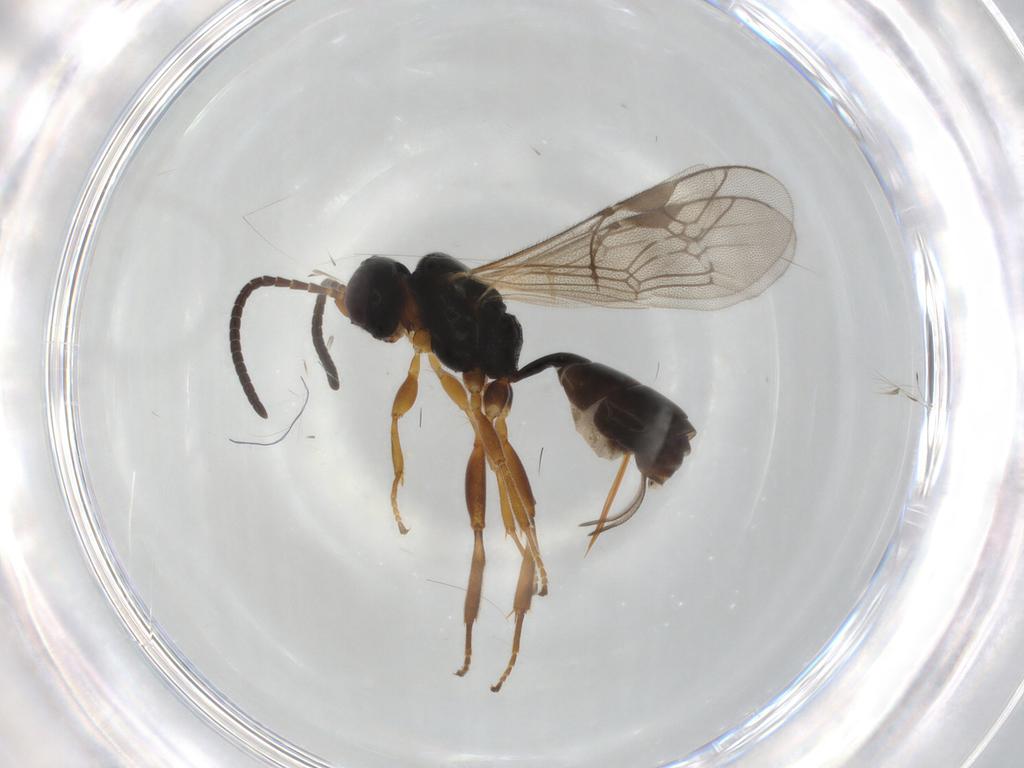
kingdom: Animalia
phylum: Arthropoda
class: Insecta
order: Hymenoptera
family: Ichneumonidae
